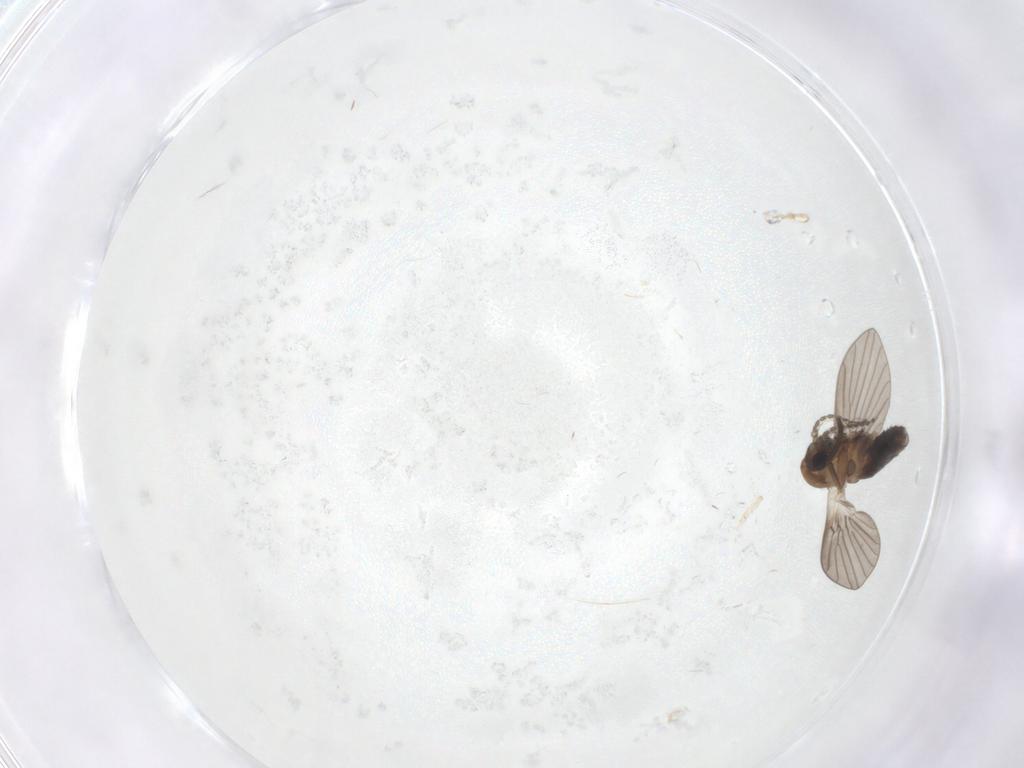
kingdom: Animalia
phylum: Arthropoda
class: Insecta
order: Diptera
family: Psychodidae
